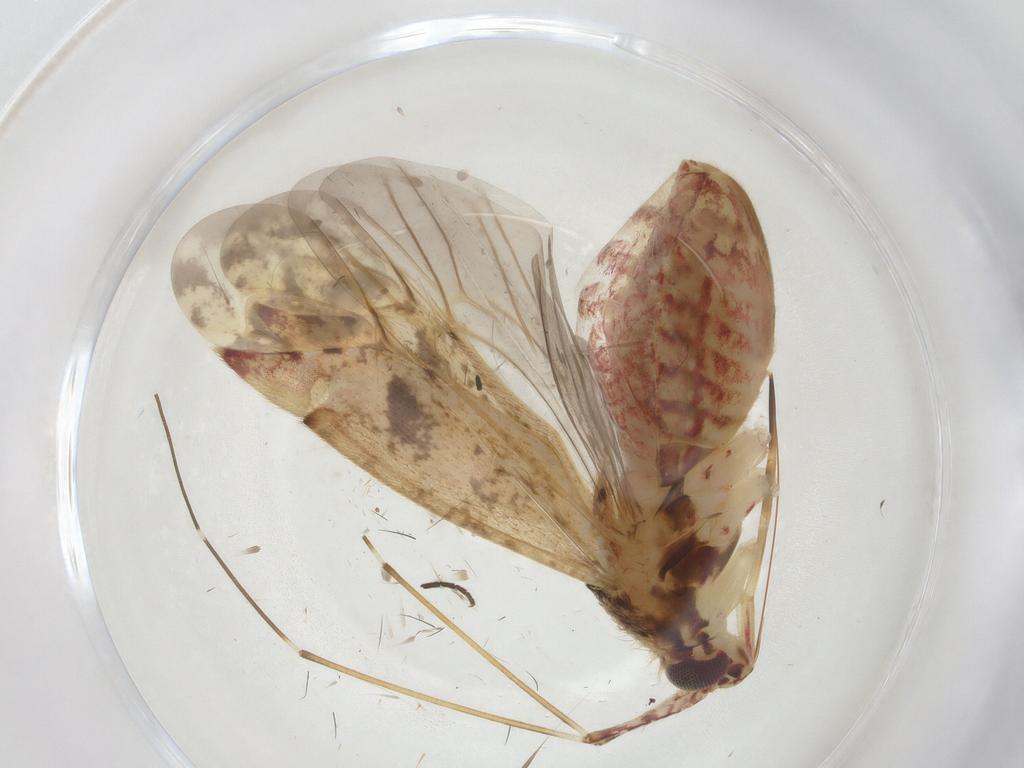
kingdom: Animalia
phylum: Arthropoda
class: Insecta
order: Hemiptera
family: Miridae
